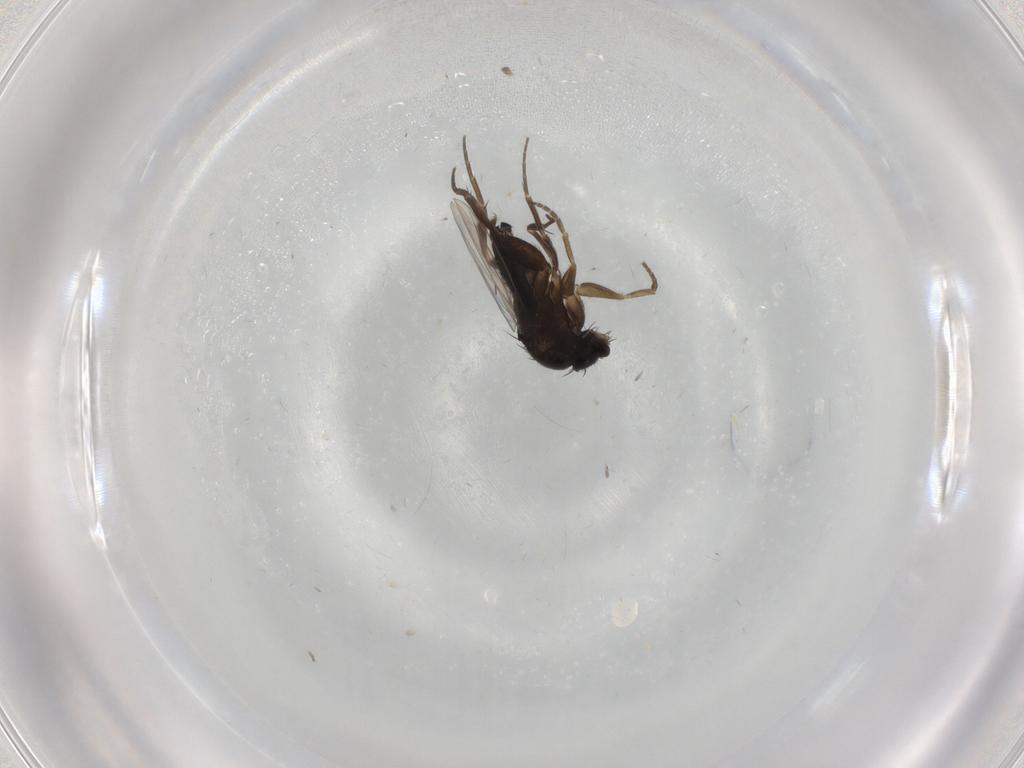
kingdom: Animalia
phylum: Arthropoda
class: Insecta
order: Diptera
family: Phoridae
